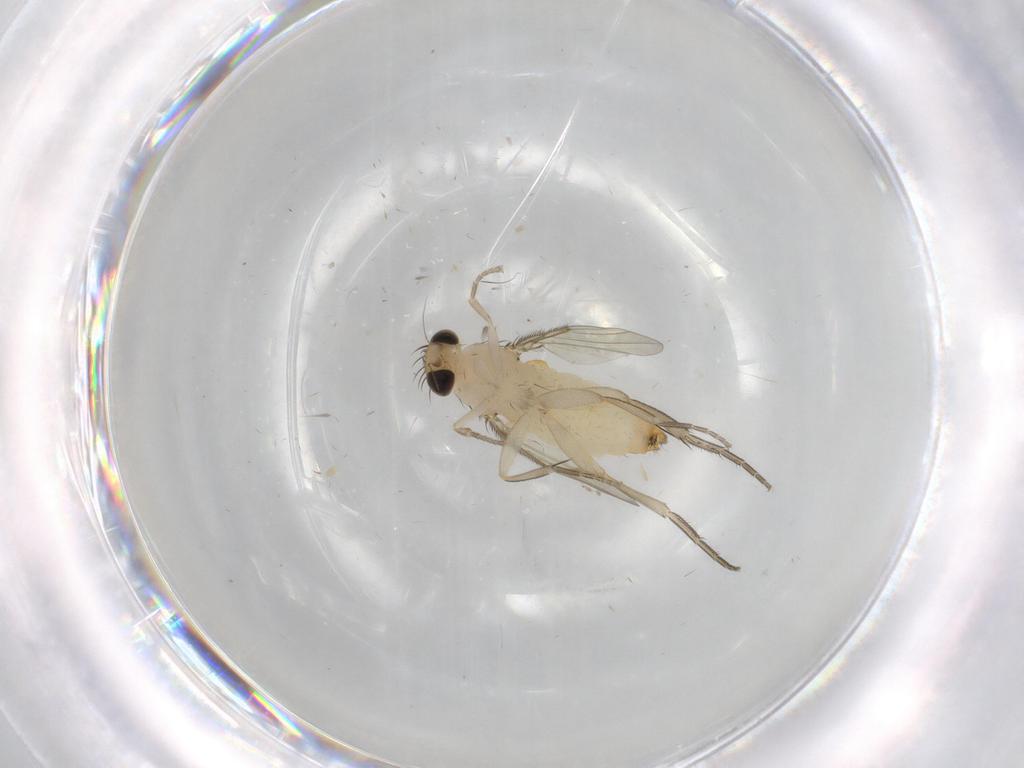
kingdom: Animalia
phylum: Arthropoda
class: Insecta
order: Diptera
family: Phoridae
